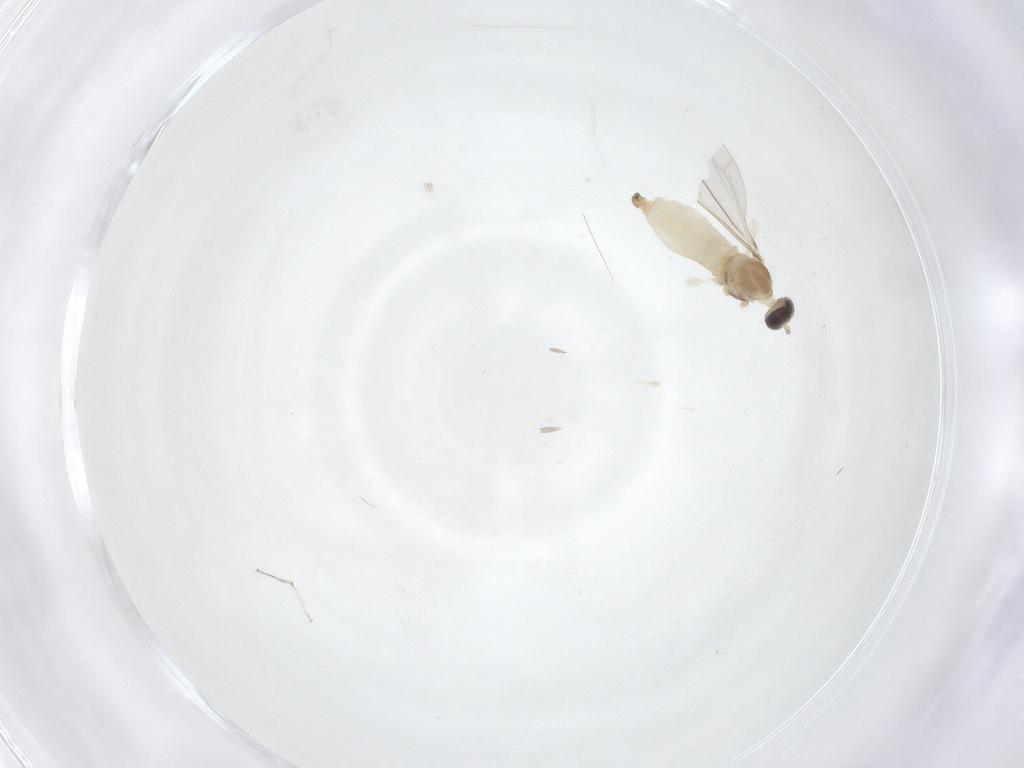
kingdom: Animalia
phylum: Arthropoda
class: Insecta
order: Diptera
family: Cecidomyiidae
